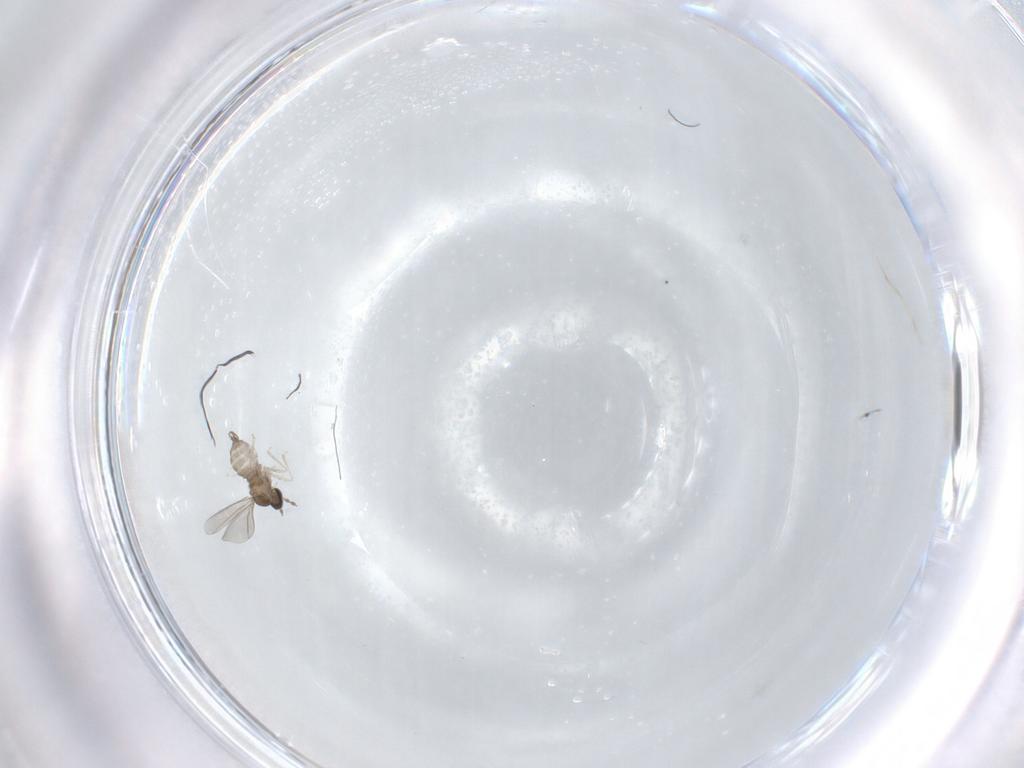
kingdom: Animalia
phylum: Arthropoda
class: Insecta
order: Diptera
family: Cecidomyiidae
